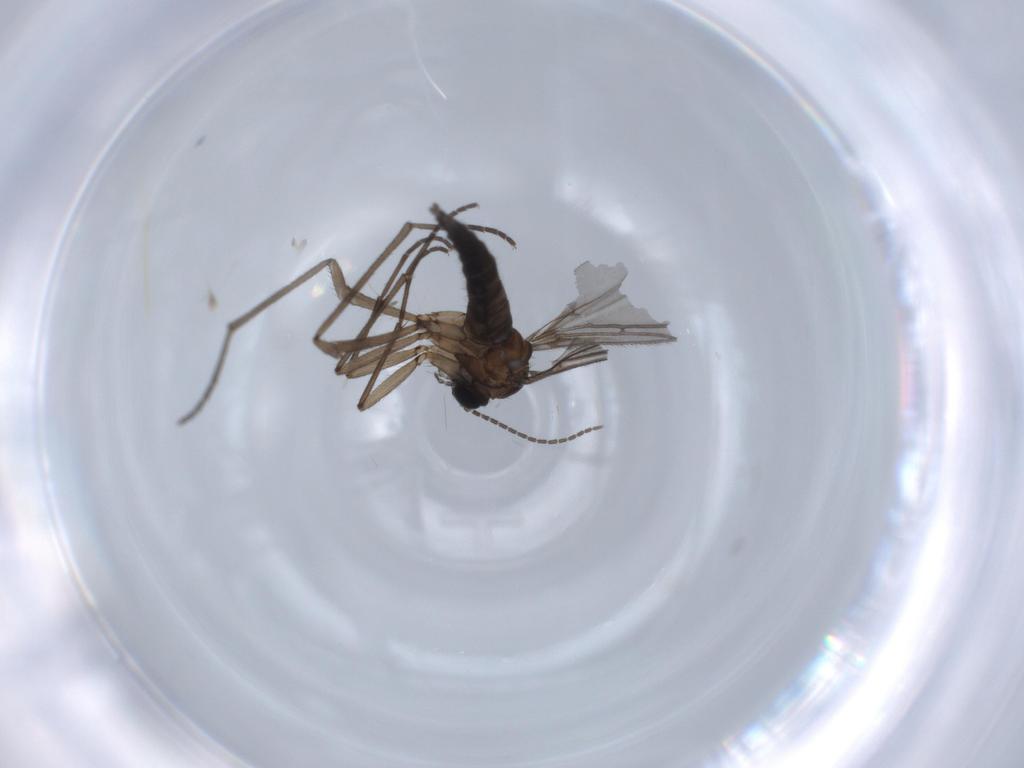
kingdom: Animalia
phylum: Arthropoda
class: Insecta
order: Diptera
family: Sciaridae
